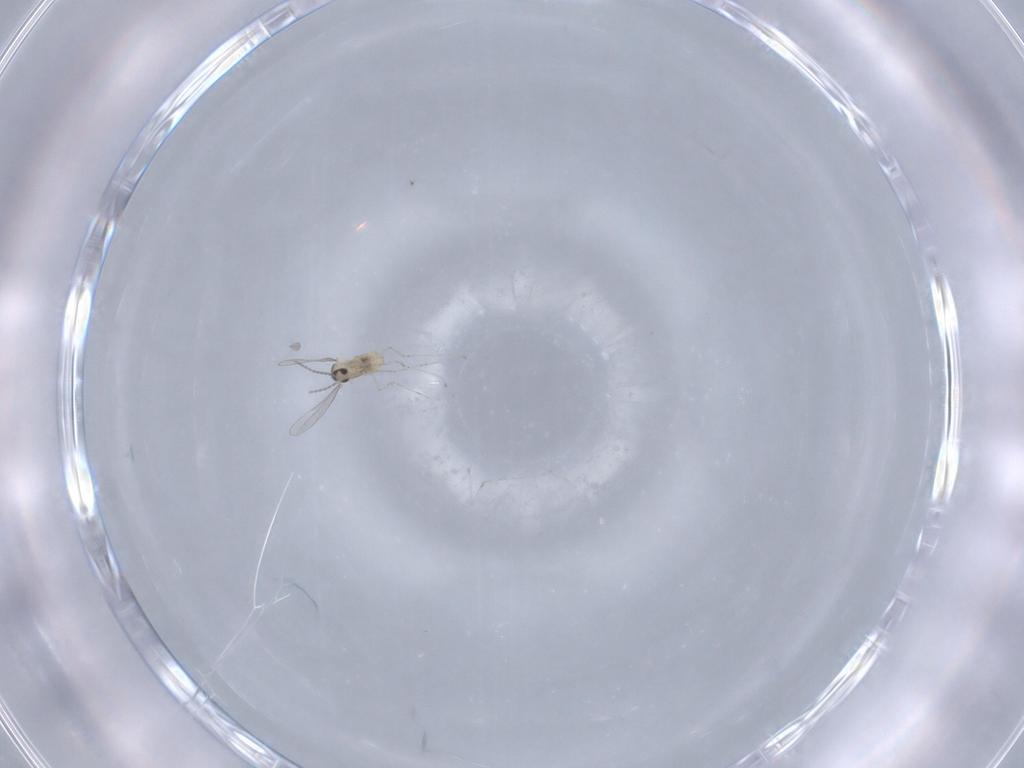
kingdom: Animalia
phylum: Arthropoda
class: Insecta
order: Diptera
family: Cecidomyiidae
